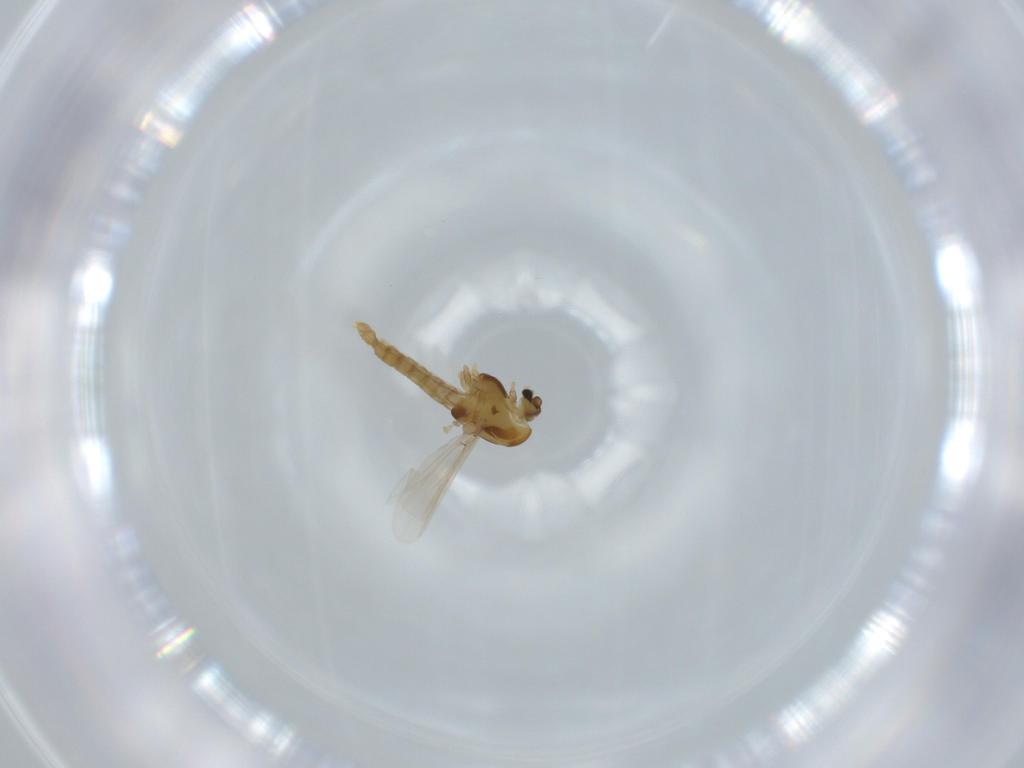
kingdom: Animalia
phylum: Arthropoda
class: Insecta
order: Diptera
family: Chironomidae
